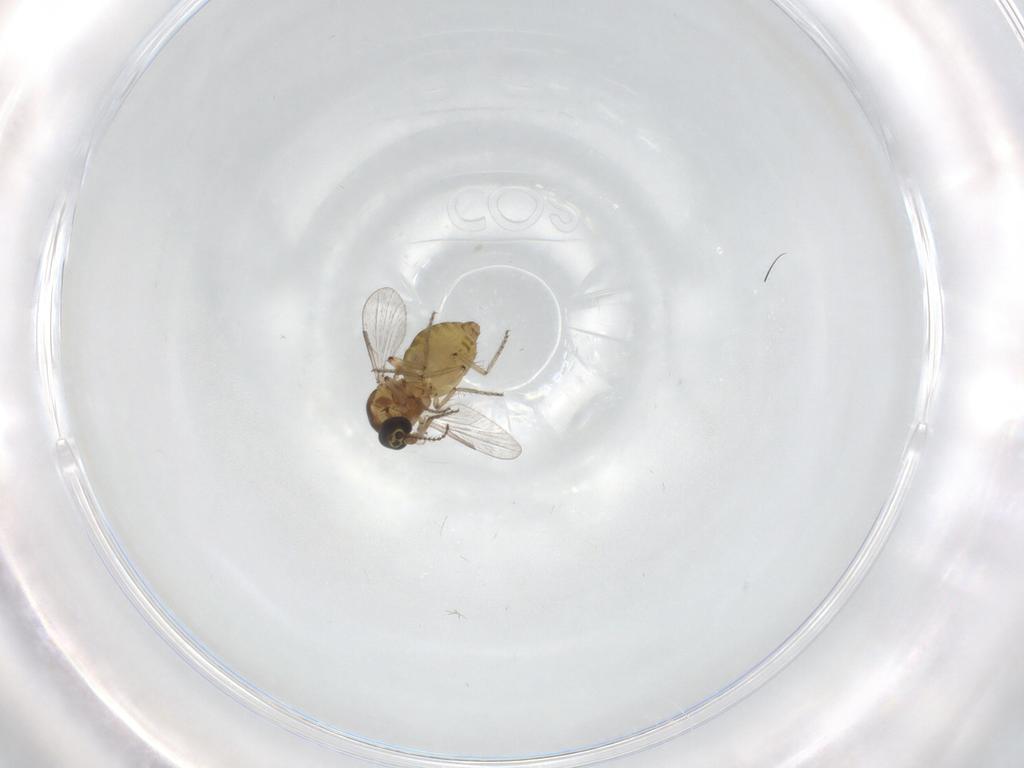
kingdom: Animalia
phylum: Arthropoda
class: Insecta
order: Diptera
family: Ceratopogonidae
